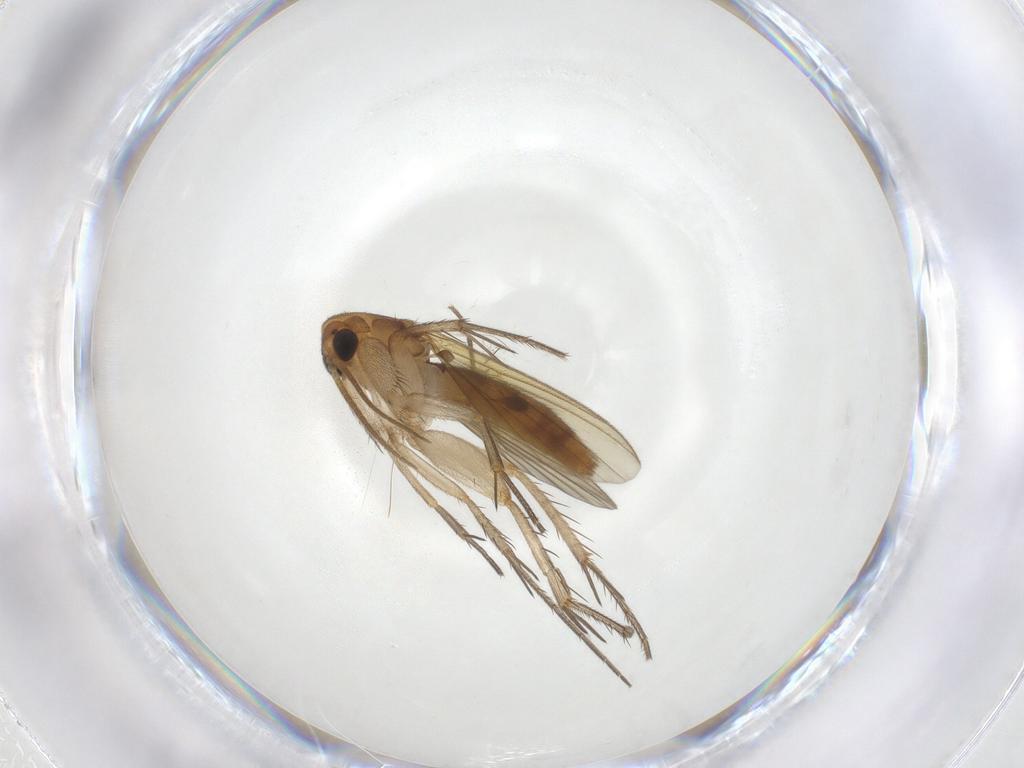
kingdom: Animalia
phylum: Arthropoda
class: Insecta
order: Diptera
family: Mycetophilidae
